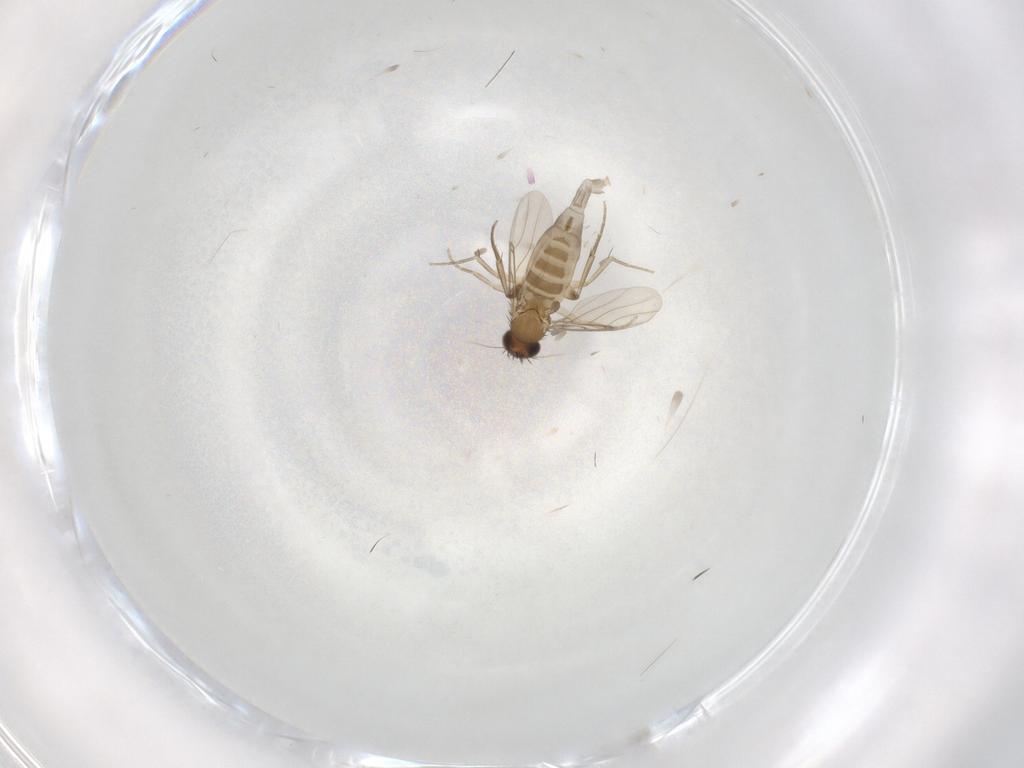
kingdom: Animalia
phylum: Arthropoda
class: Insecta
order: Diptera
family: Phoridae
